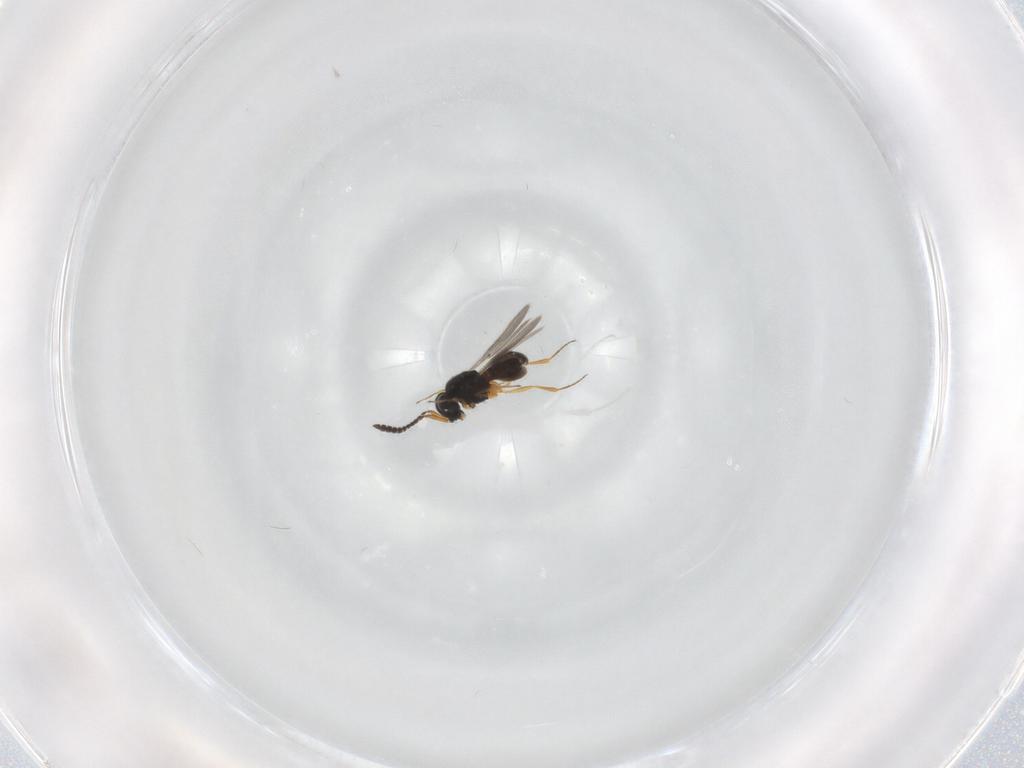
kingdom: Animalia
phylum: Arthropoda
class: Insecta
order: Hymenoptera
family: Scelionidae
